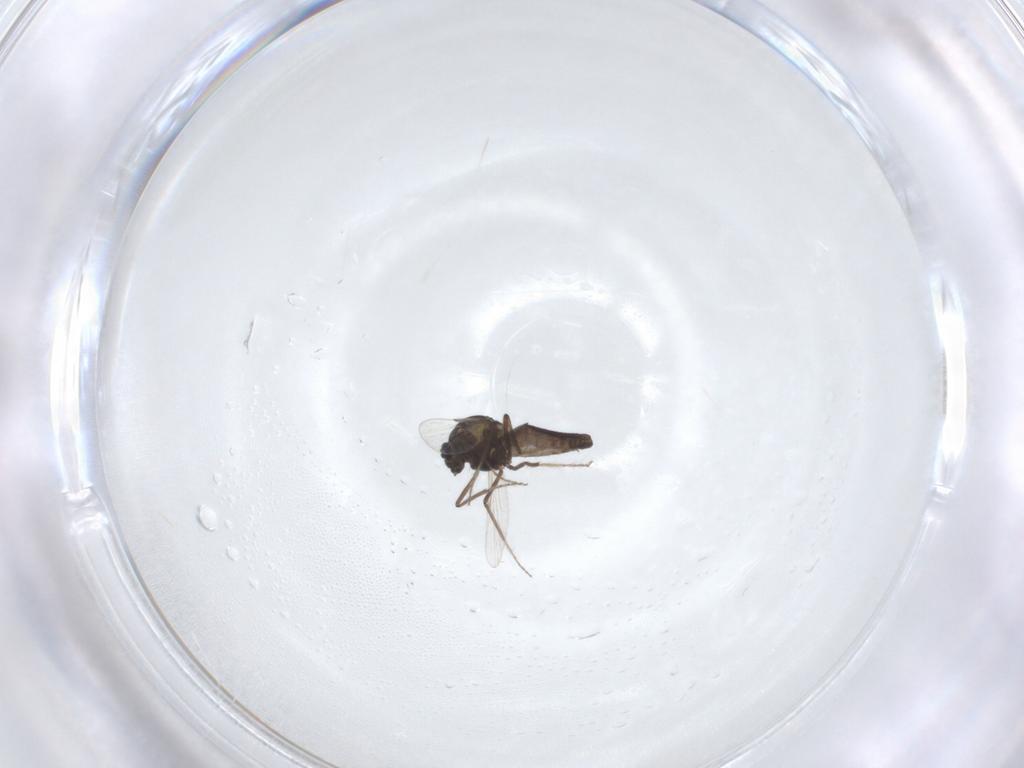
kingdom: Animalia
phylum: Arthropoda
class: Insecta
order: Diptera
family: Ceratopogonidae
